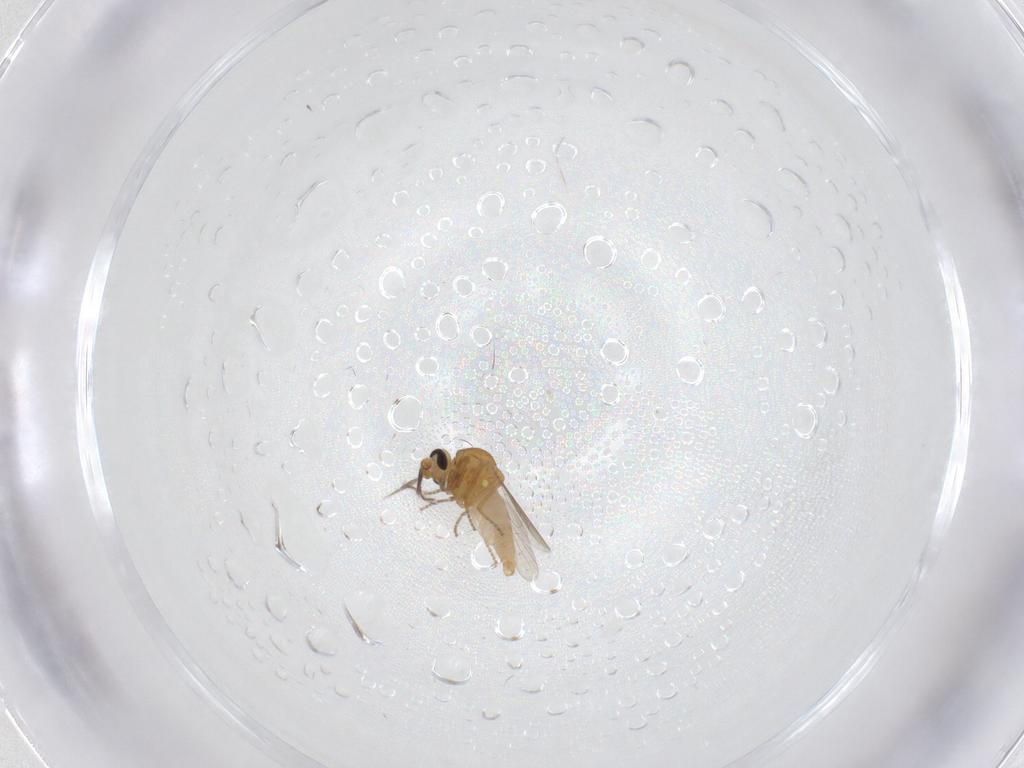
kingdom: Animalia
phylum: Arthropoda
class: Insecta
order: Diptera
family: Ceratopogonidae
